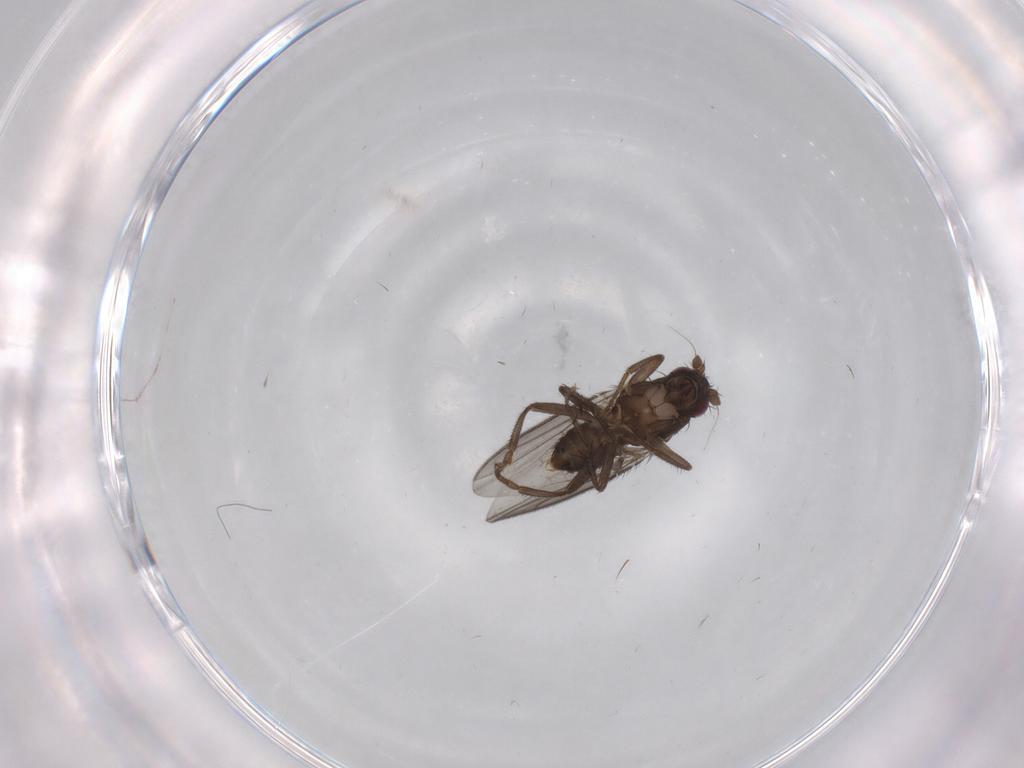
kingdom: Animalia
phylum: Arthropoda
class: Insecta
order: Diptera
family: Sphaeroceridae
